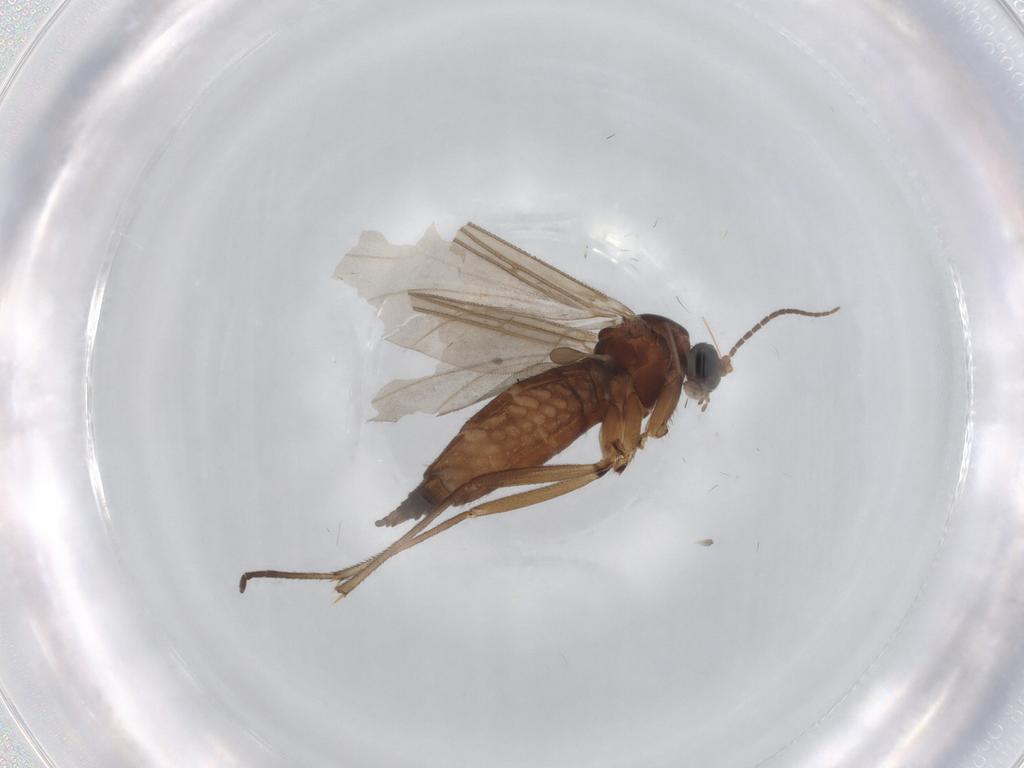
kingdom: Animalia
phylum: Arthropoda
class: Insecta
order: Diptera
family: Sciaridae
